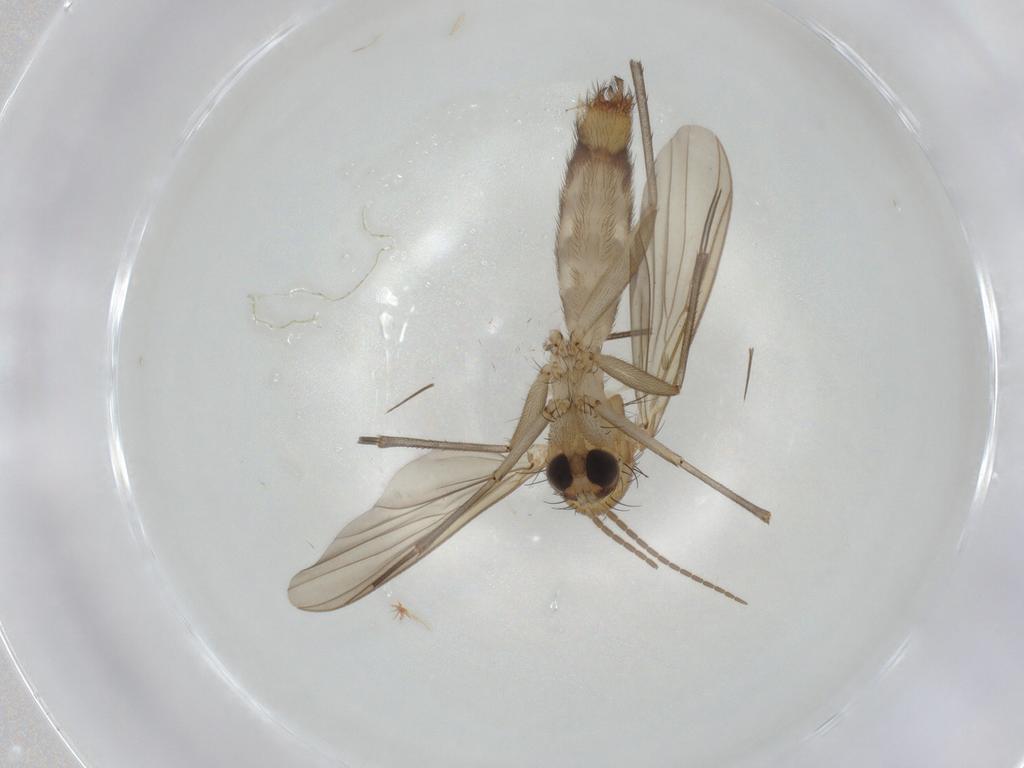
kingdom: Animalia
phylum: Arthropoda
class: Insecta
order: Diptera
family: Mycetophilidae
